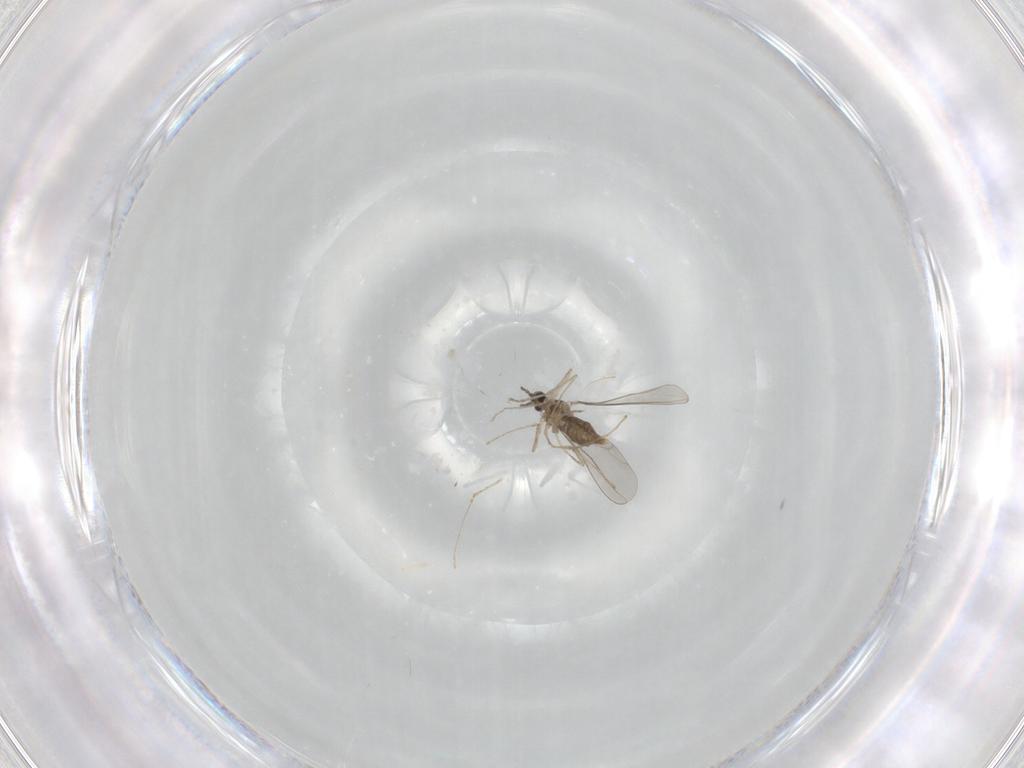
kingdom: Animalia
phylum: Arthropoda
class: Insecta
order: Diptera
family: Cecidomyiidae
